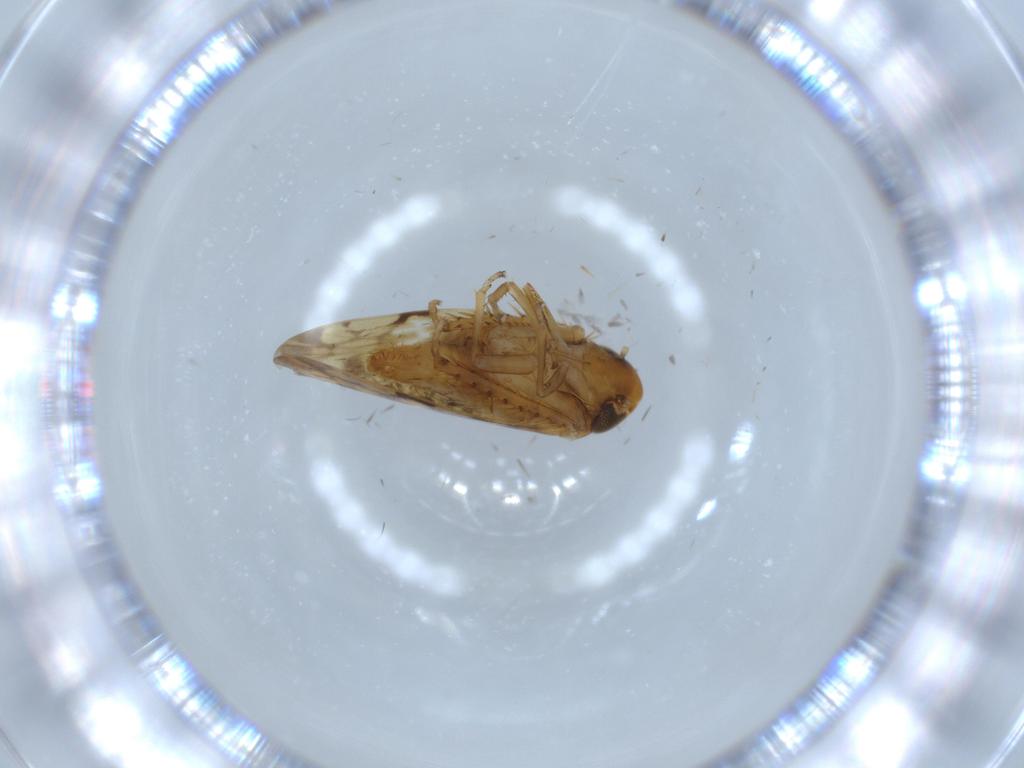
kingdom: Animalia
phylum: Arthropoda
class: Insecta
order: Hemiptera
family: Cicadellidae
